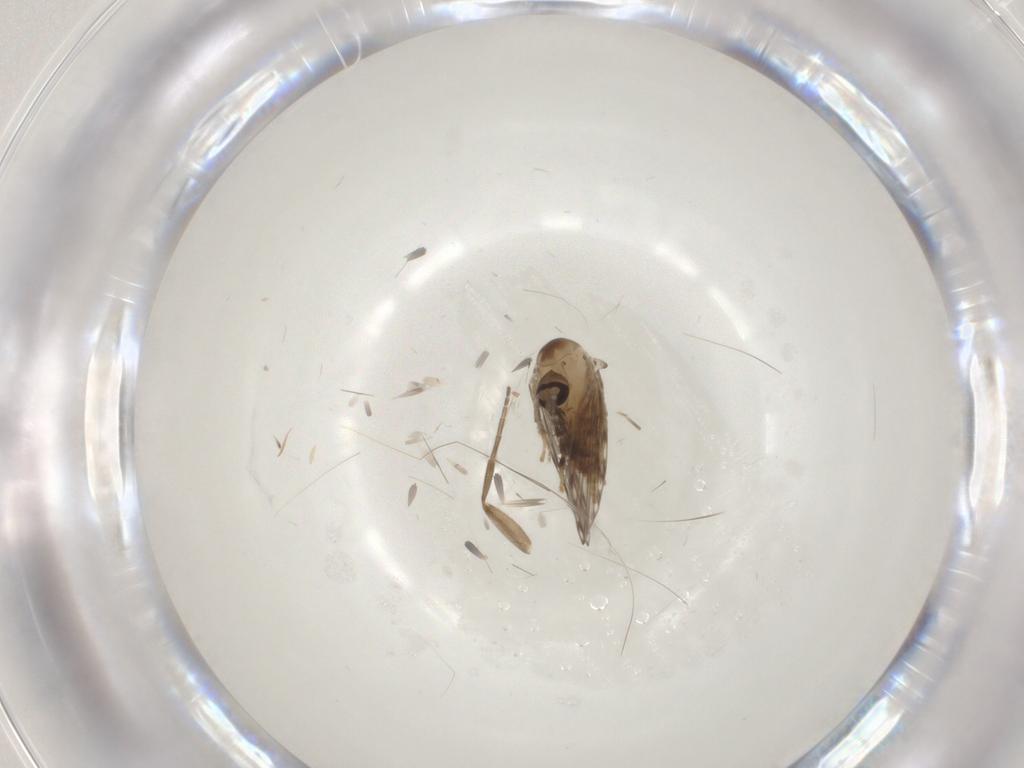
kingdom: Animalia
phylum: Arthropoda
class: Insecta
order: Diptera
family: Psychodidae
